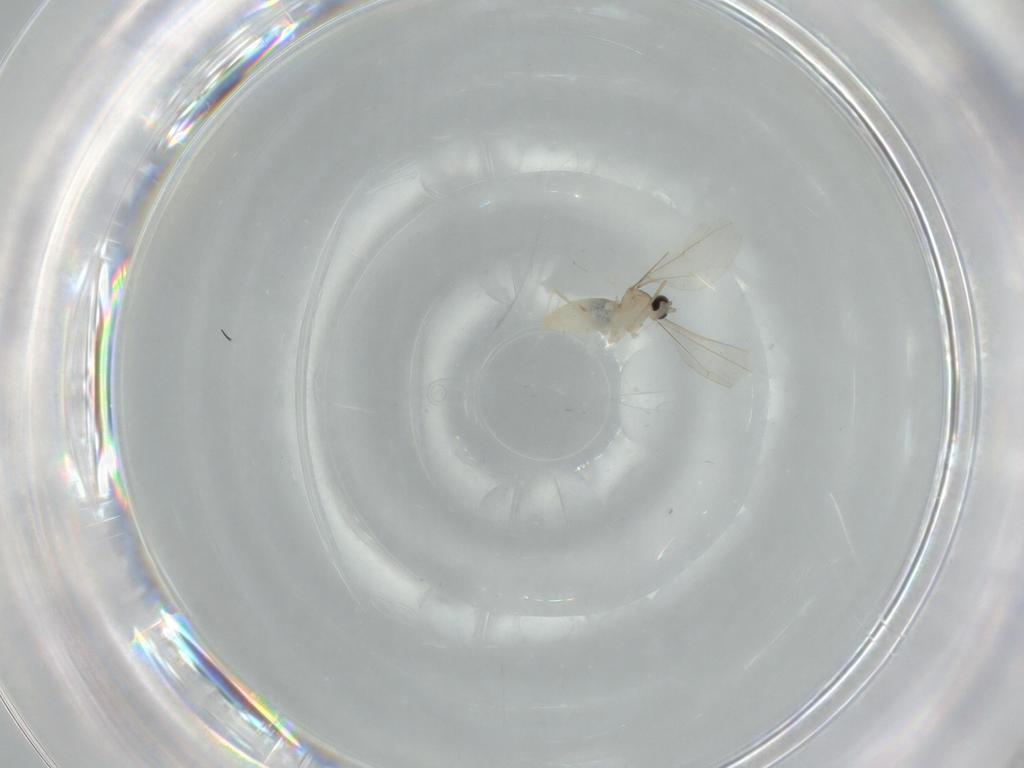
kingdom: Animalia
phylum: Arthropoda
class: Insecta
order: Diptera
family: Cecidomyiidae
